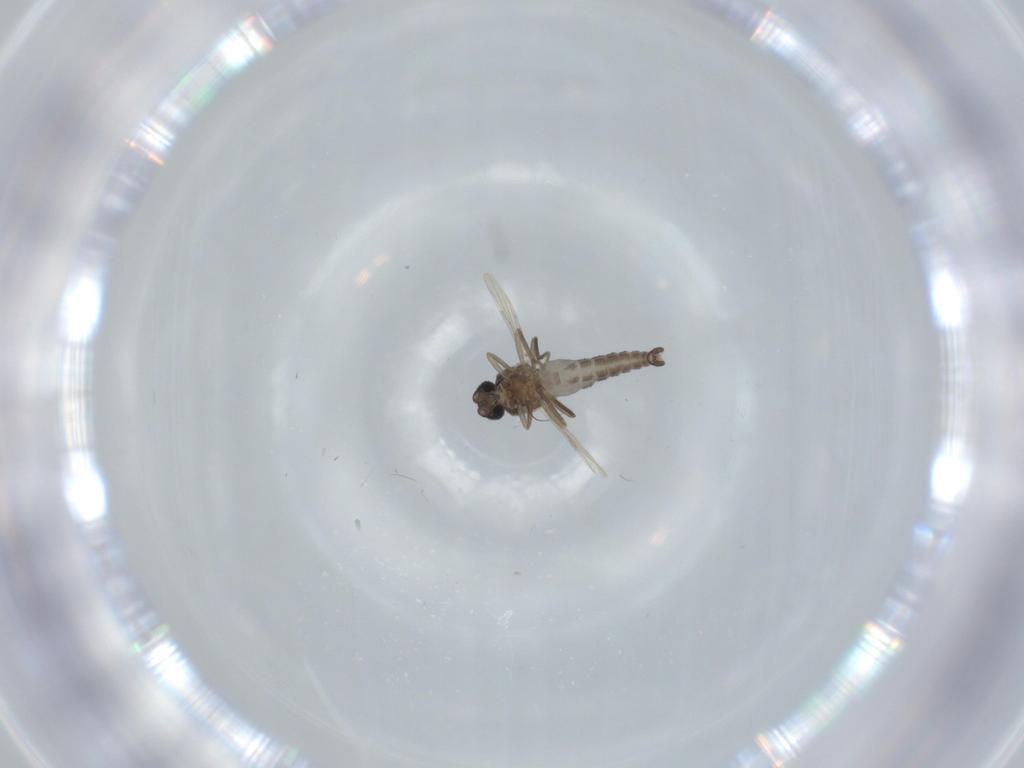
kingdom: Animalia
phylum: Arthropoda
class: Insecta
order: Diptera
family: Ceratopogonidae
